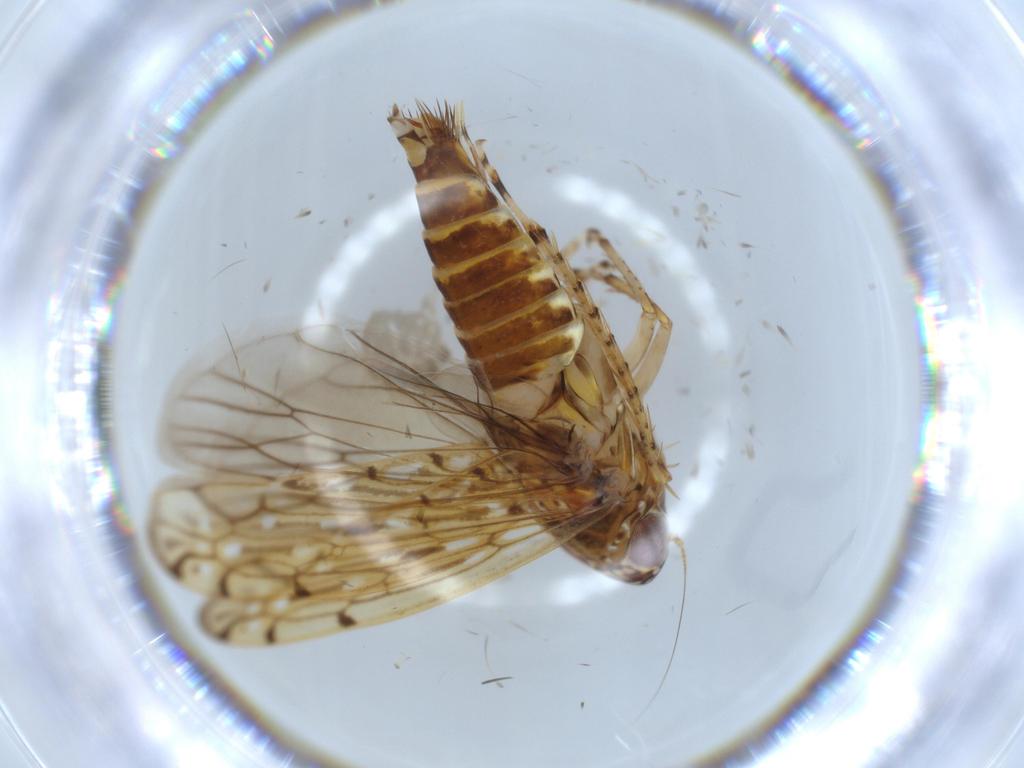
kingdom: Animalia
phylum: Arthropoda
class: Insecta
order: Hemiptera
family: Cicadellidae
